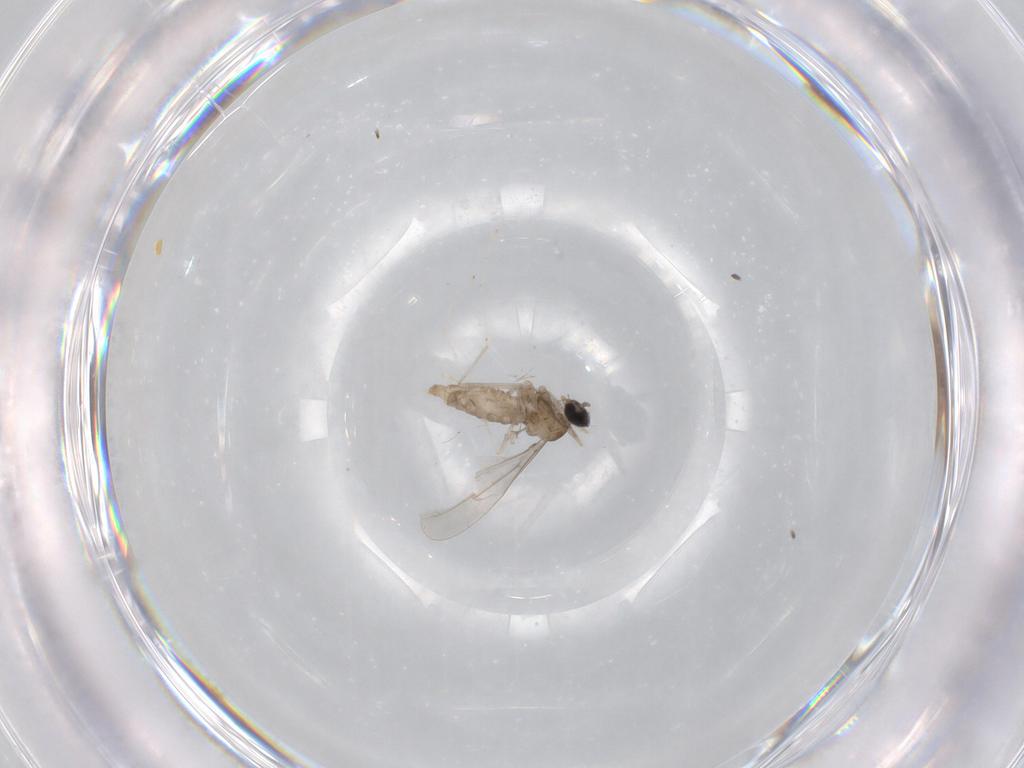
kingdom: Animalia
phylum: Arthropoda
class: Insecta
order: Diptera
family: Cecidomyiidae
